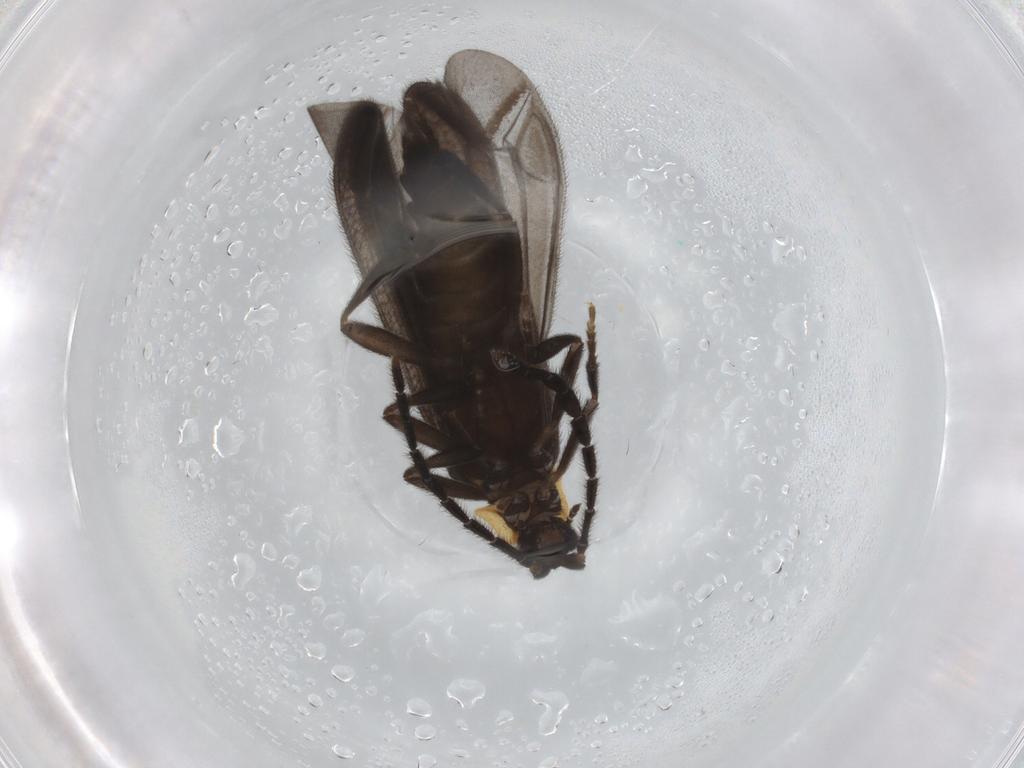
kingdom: Animalia
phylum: Arthropoda
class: Insecta
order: Coleoptera
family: Lycidae
